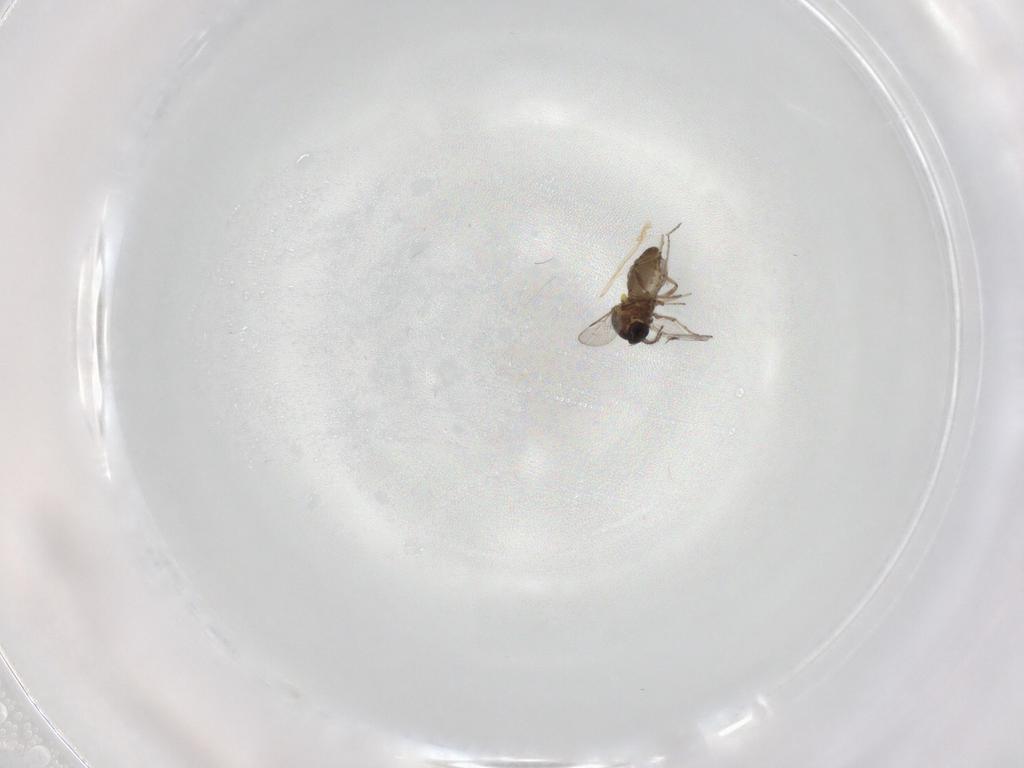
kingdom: Animalia
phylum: Arthropoda
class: Insecta
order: Diptera
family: Ceratopogonidae
